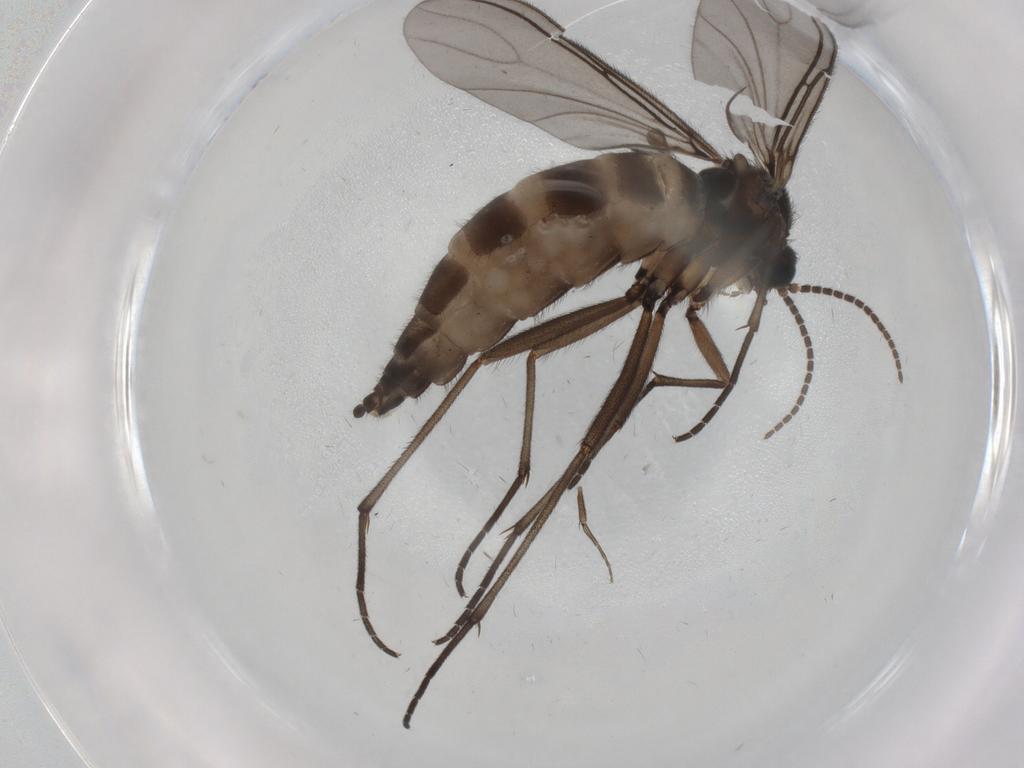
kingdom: Animalia
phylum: Arthropoda
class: Insecta
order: Diptera
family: Sciaridae
